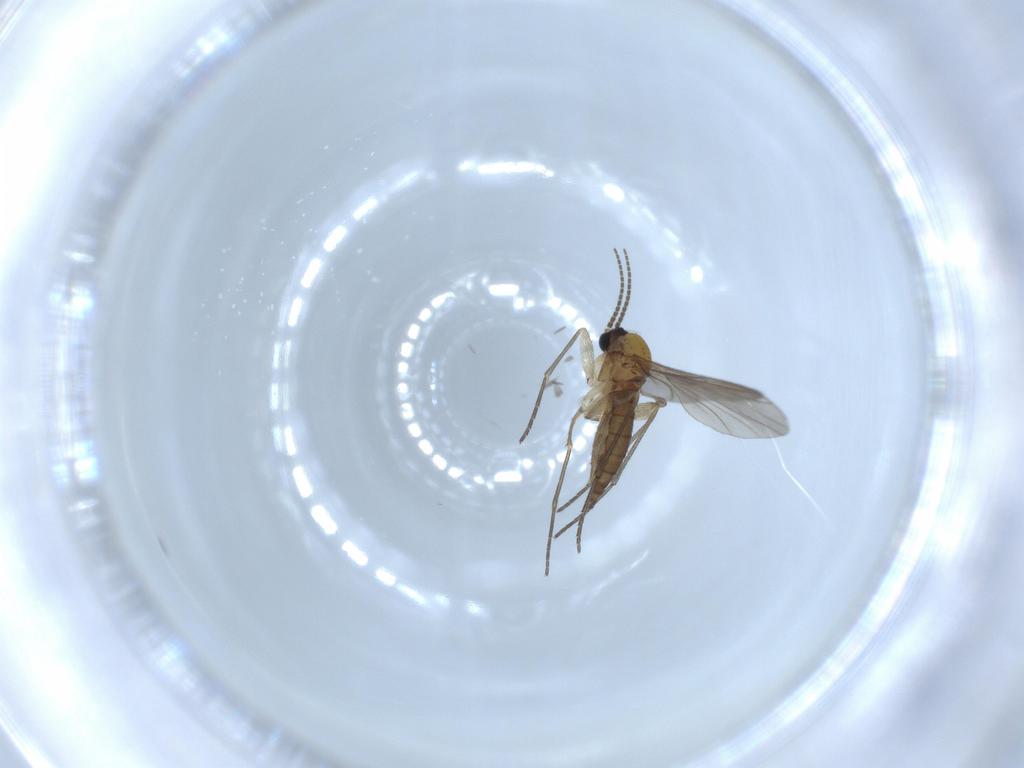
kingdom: Animalia
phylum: Arthropoda
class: Insecta
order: Diptera
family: Sciaridae
